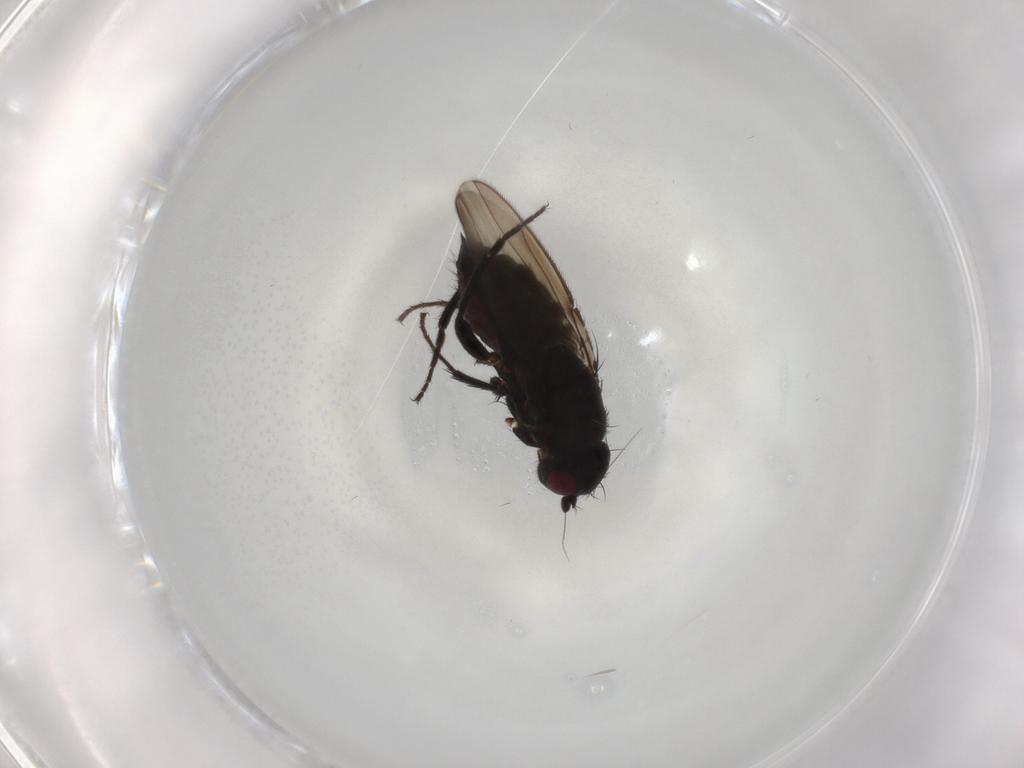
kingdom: Animalia
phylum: Arthropoda
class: Insecta
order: Diptera
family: Sphaeroceridae
